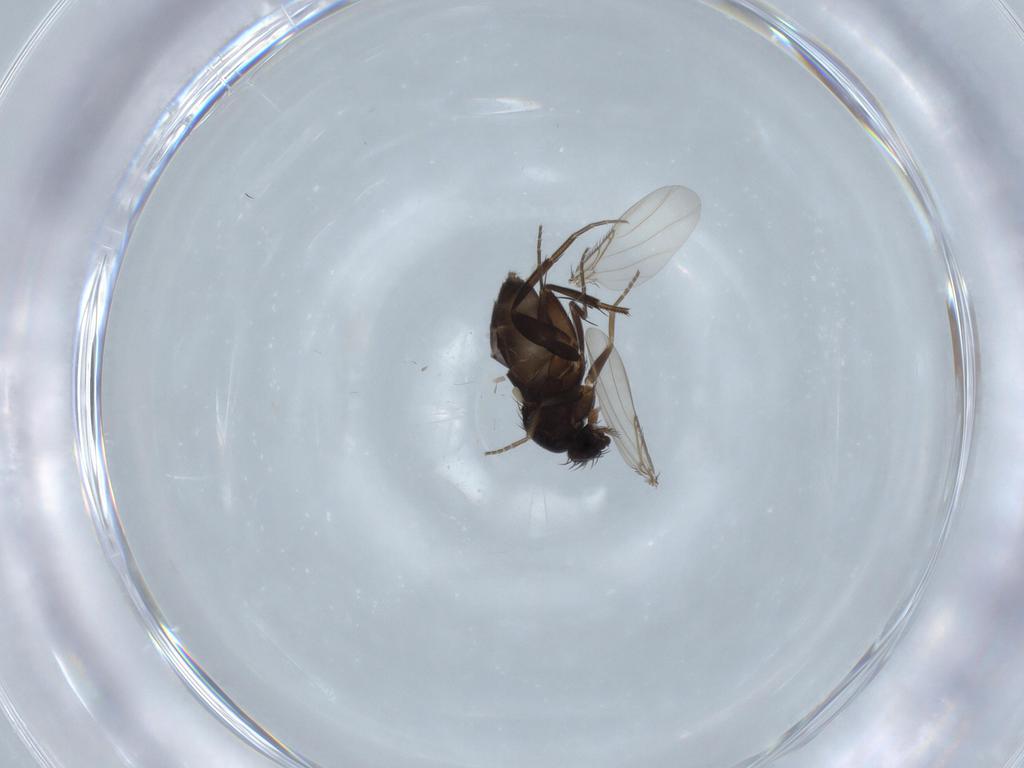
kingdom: Animalia
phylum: Arthropoda
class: Insecta
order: Diptera
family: Phoridae
